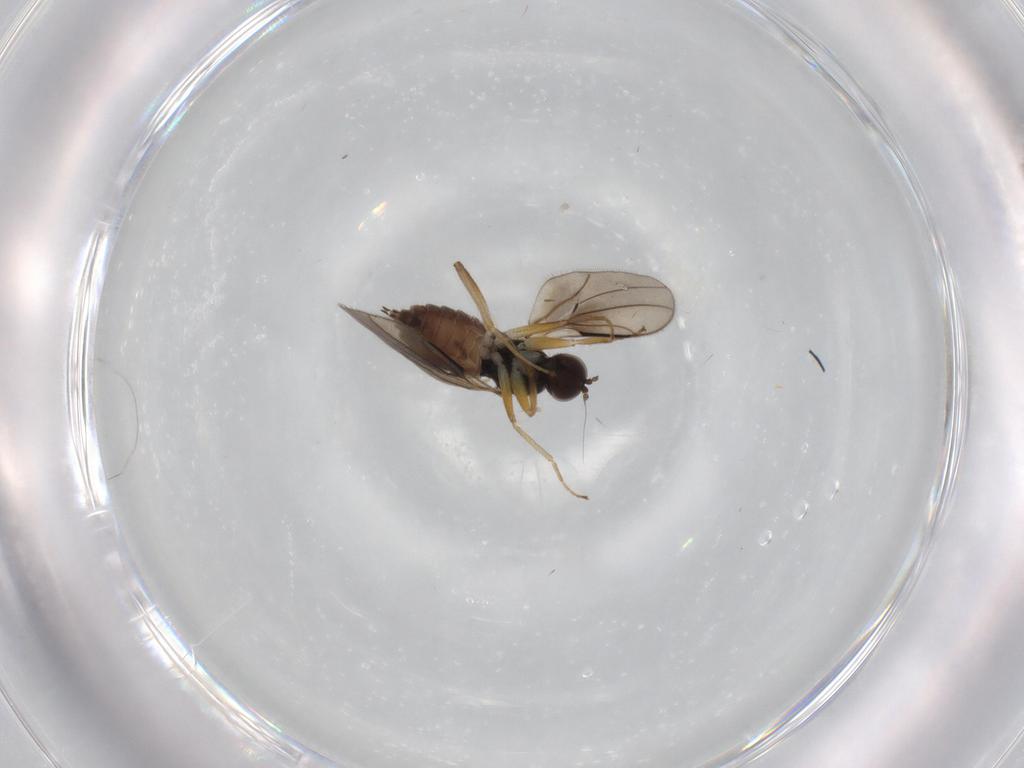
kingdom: Animalia
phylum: Arthropoda
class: Insecta
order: Diptera
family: Hybotidae
